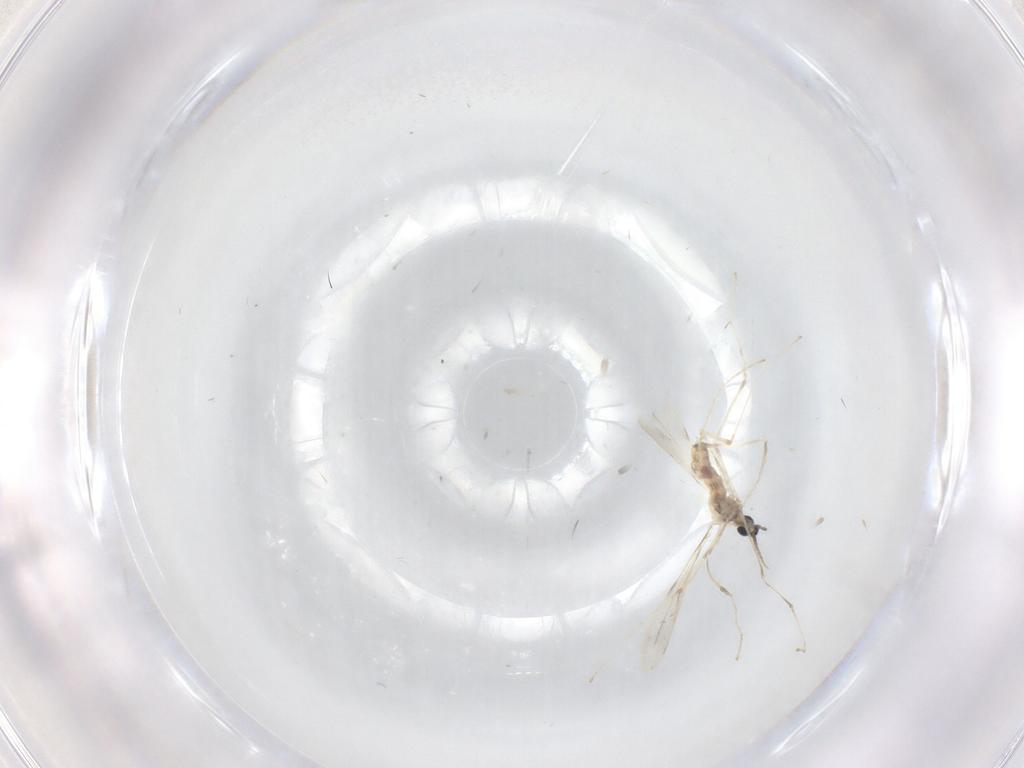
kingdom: Animalia
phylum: Arthropoda
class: Insecta
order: Diptera
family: Cecidomyiidae
